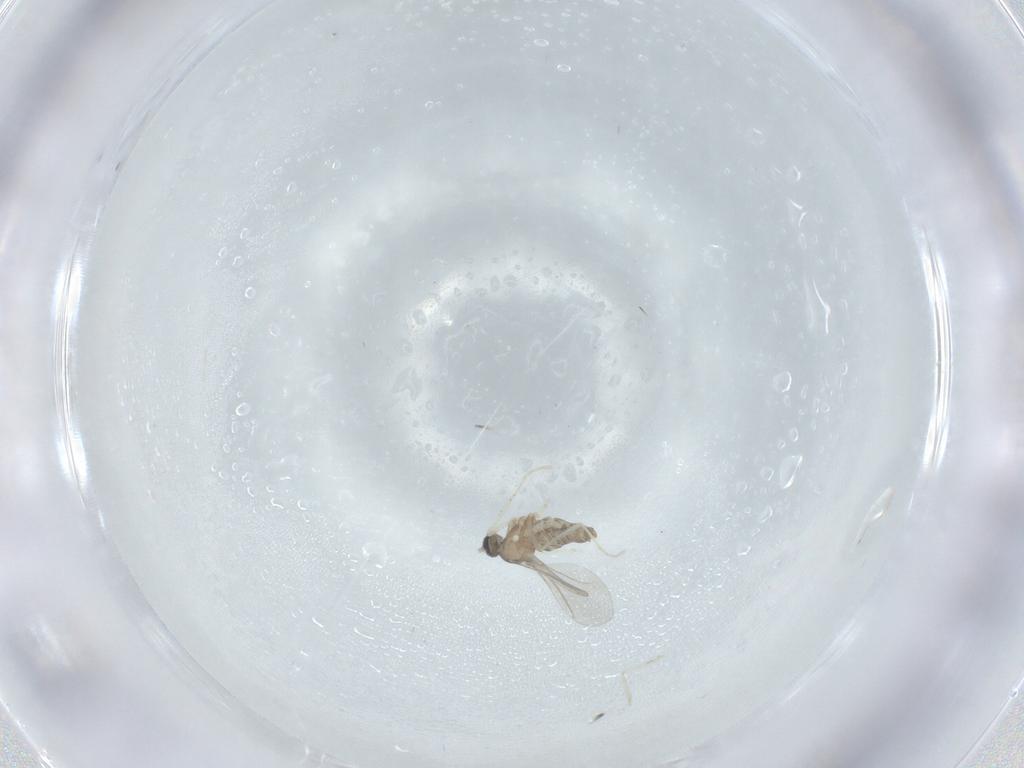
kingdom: Animalia
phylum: Arthropoda
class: Insecta
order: Diptera
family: Cecidomyiidae
